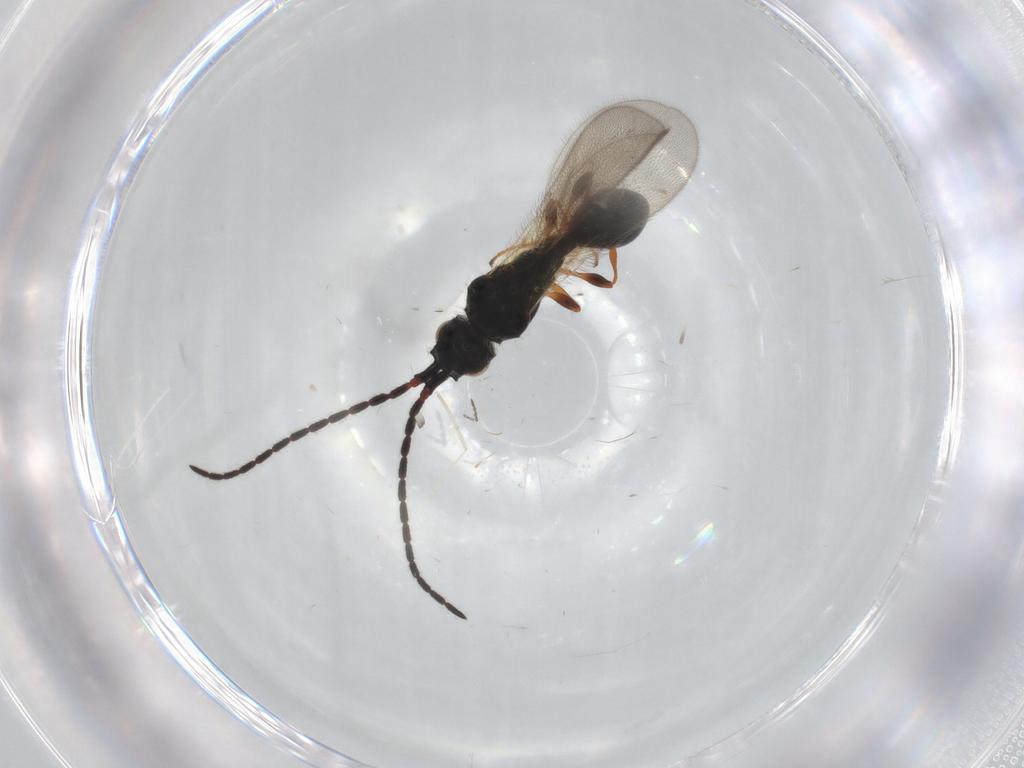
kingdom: Animalia
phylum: Arthropoda
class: Insecta
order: Hymenoptera
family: Diapriidae
